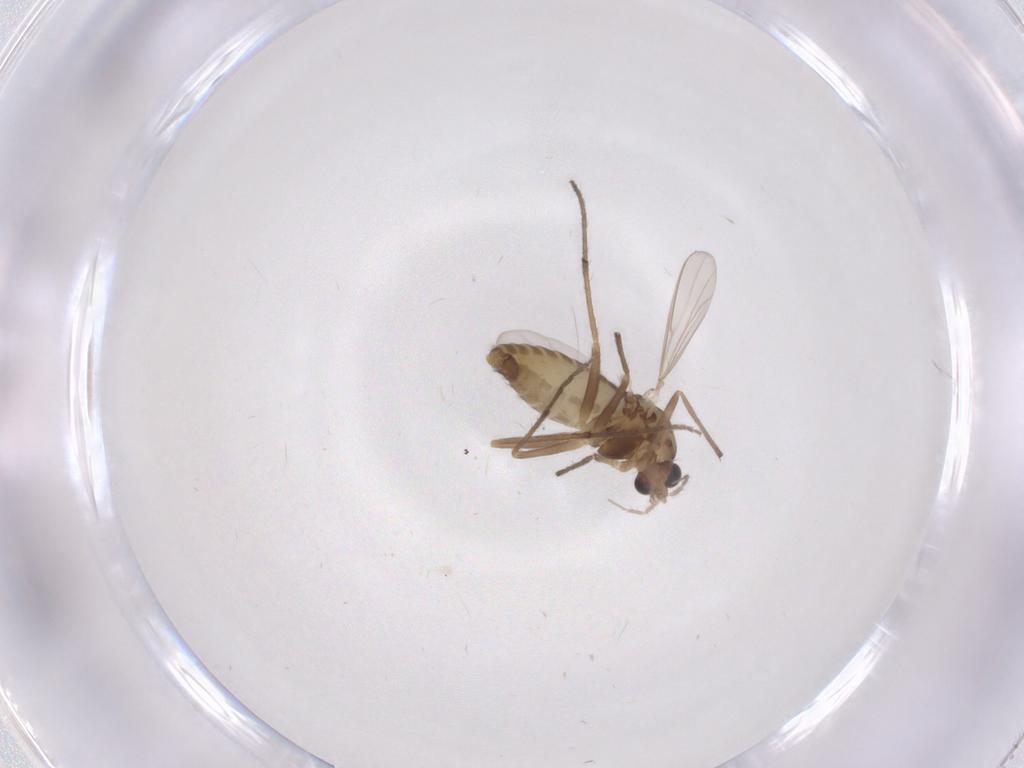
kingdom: Animalia
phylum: Arthropoda
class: Insecta
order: Diptera
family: Chironomidae
